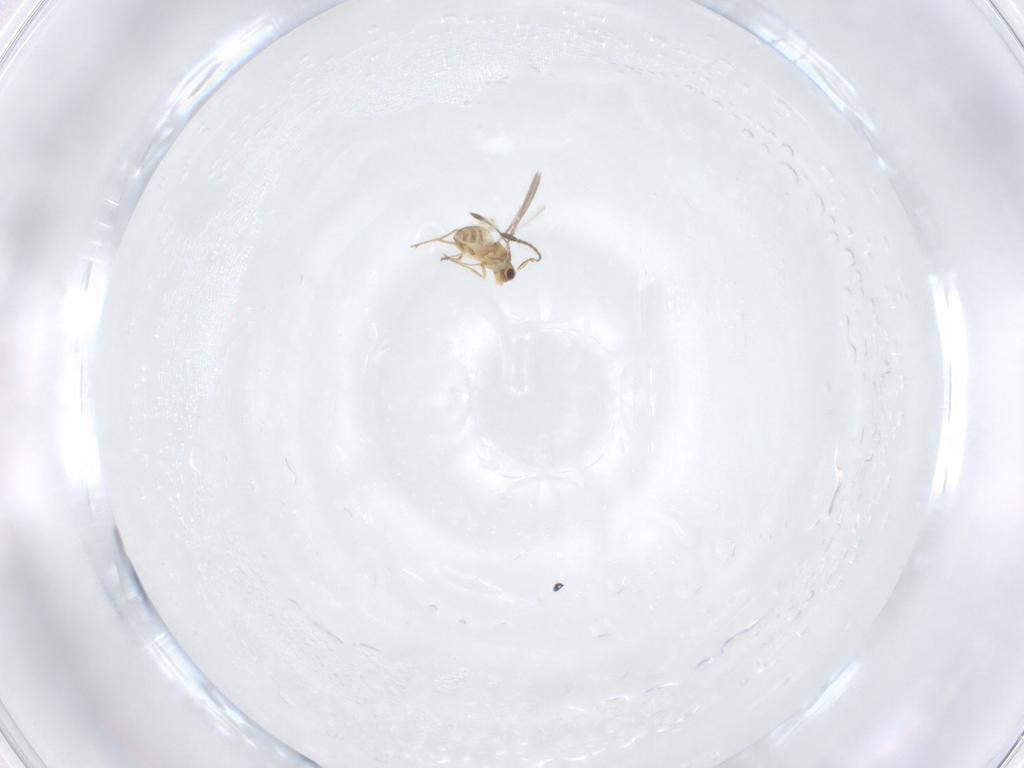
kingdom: Animalia
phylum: Arthropoda
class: Insecta
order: Hymenoptera
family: Mymaridae
